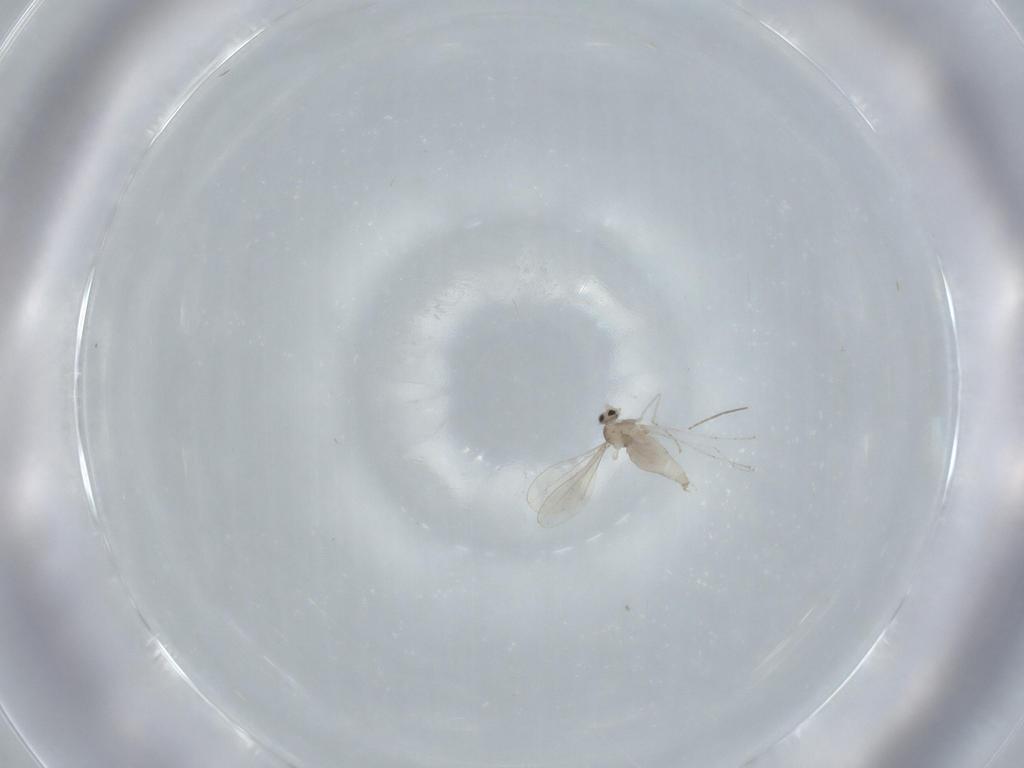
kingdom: Animalia
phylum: Arthropoda
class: Insecta
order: Diptera
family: Chironomidae
